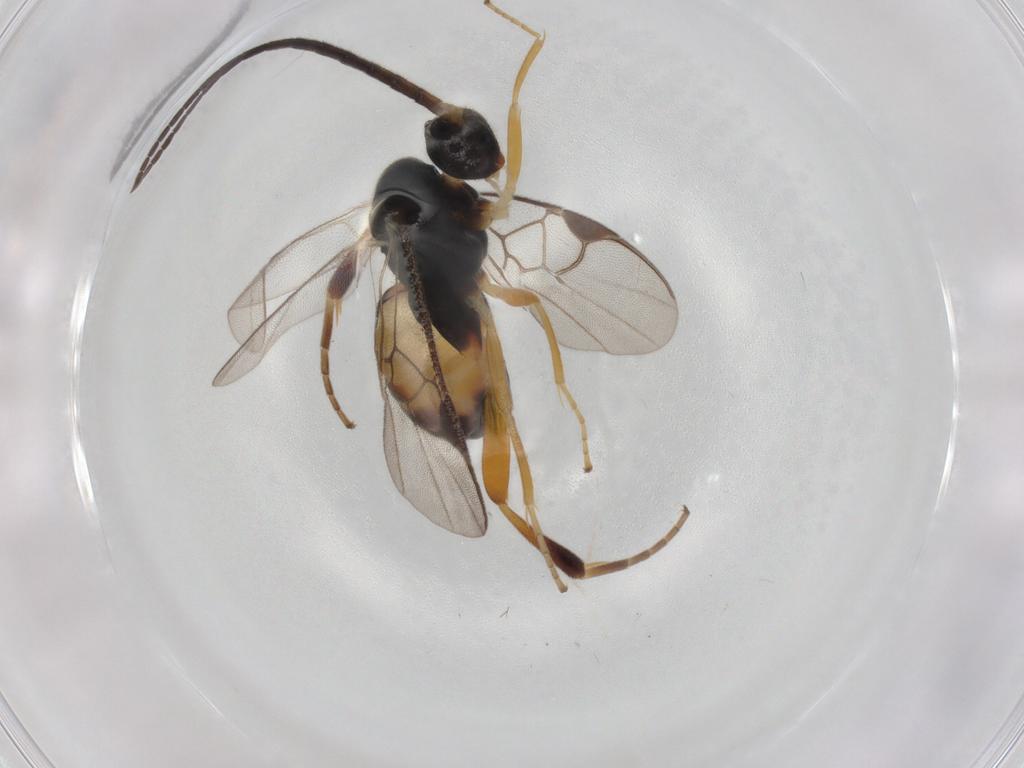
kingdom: Animalia
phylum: Arthropoda
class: Insecta
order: Hymenoptera
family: Braconidae
